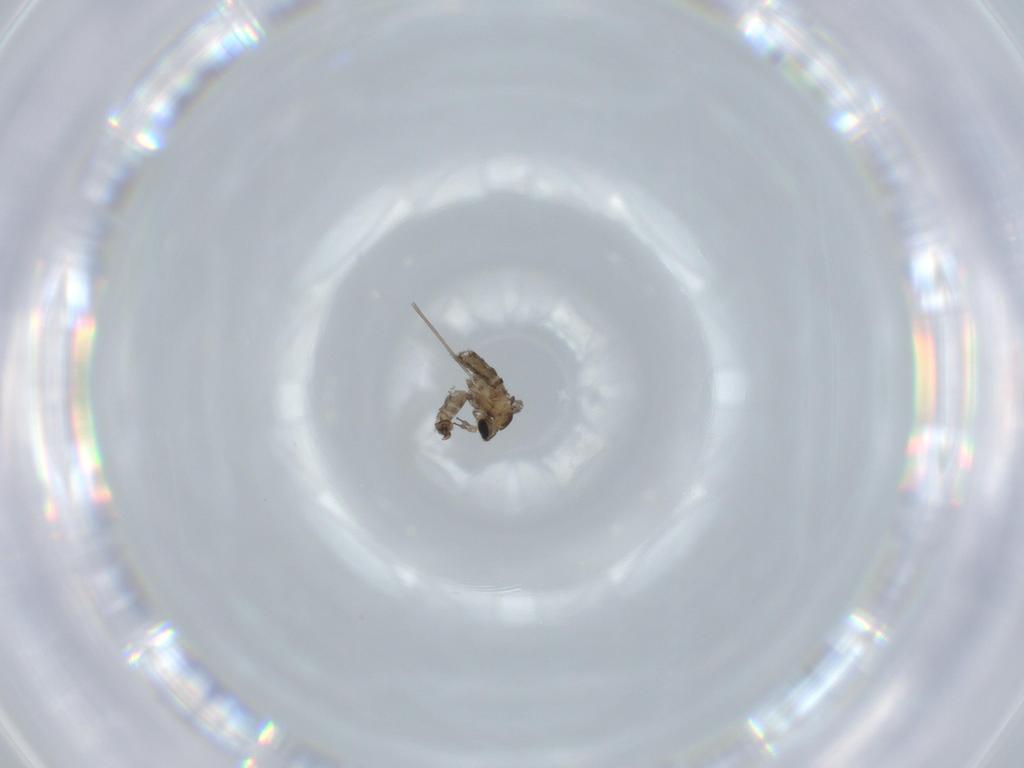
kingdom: Animalia
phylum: Arthropoda
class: Insecta
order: Diptera
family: Cecidomyiidae
